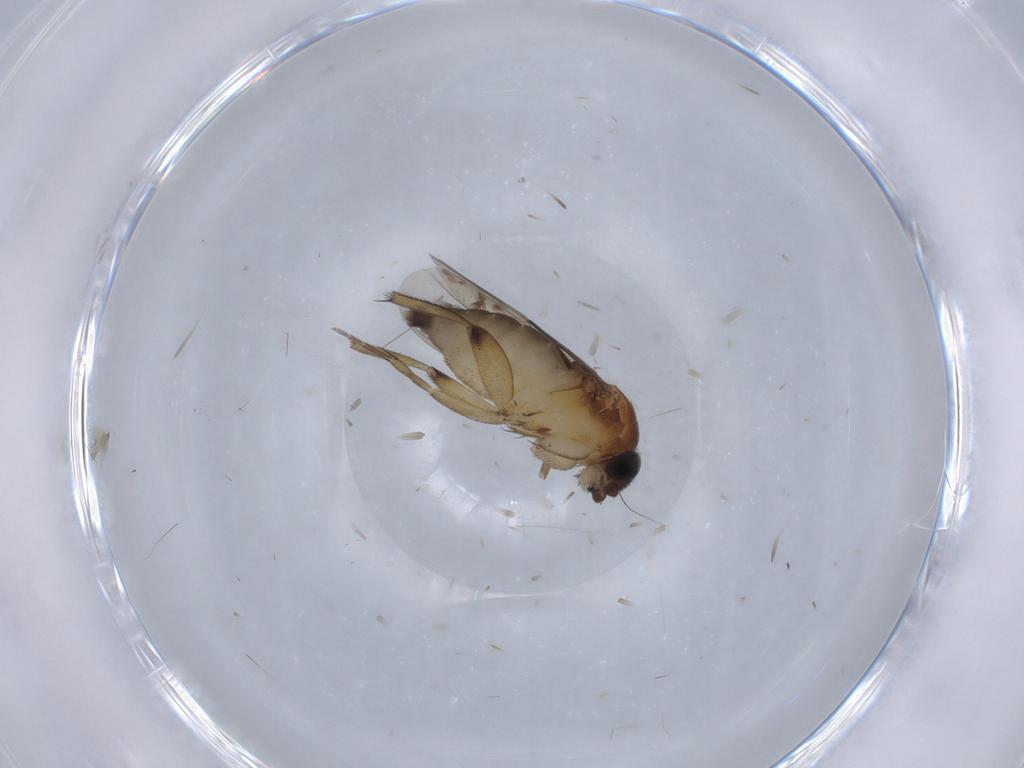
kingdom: Animalia
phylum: Arthropoda
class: Insecta
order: Diptera
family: Phoridae
